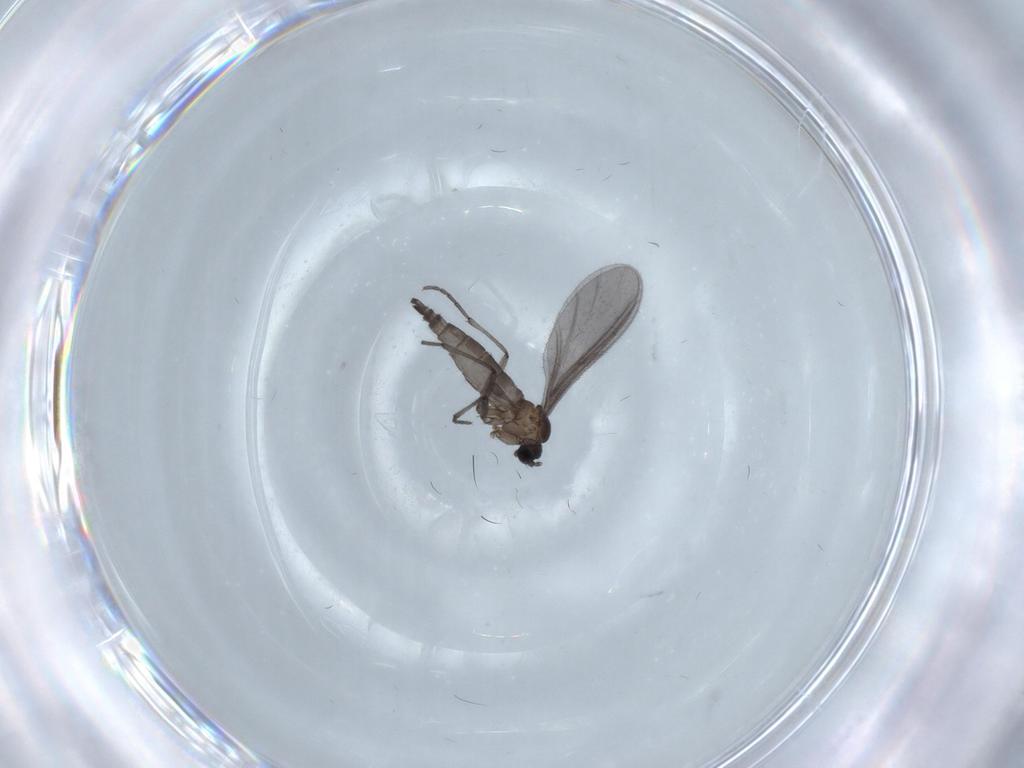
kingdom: Animalia
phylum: Arthropoda
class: Insecta
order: Diptera
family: Sciaridae
